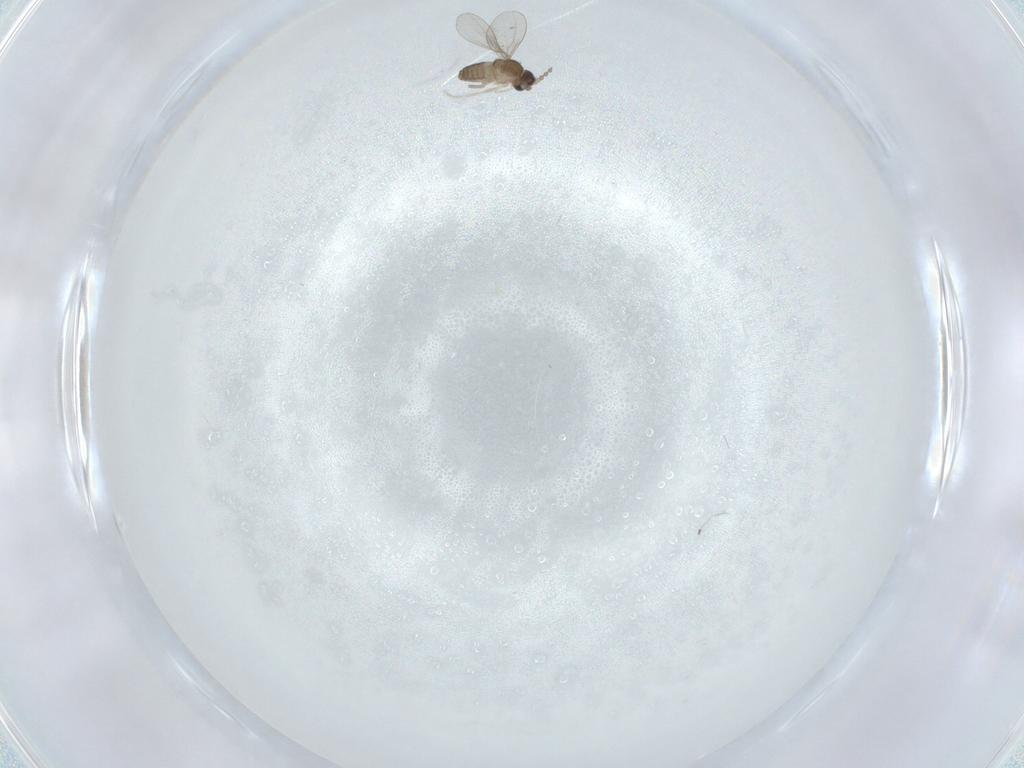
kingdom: Animalia
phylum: Arthropoda
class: Insecta
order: Diptera
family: Cecidomyiidae
